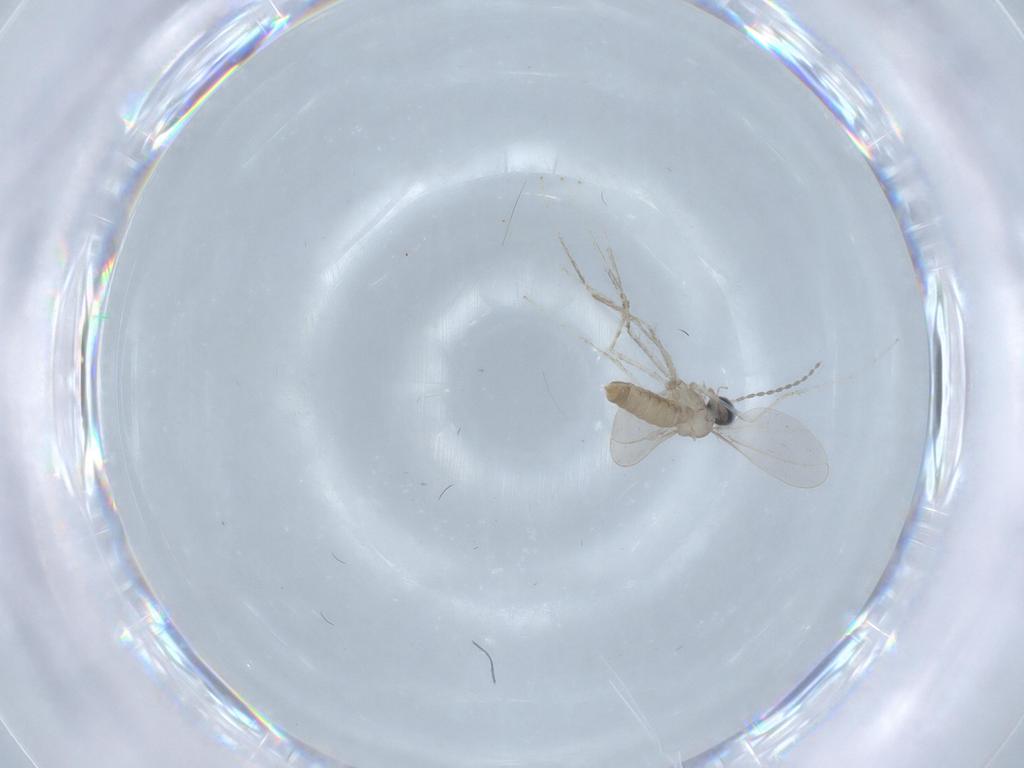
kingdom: Animalia
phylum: Arthropoda
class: Insecta
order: Diptera
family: Cecidomyiidae
